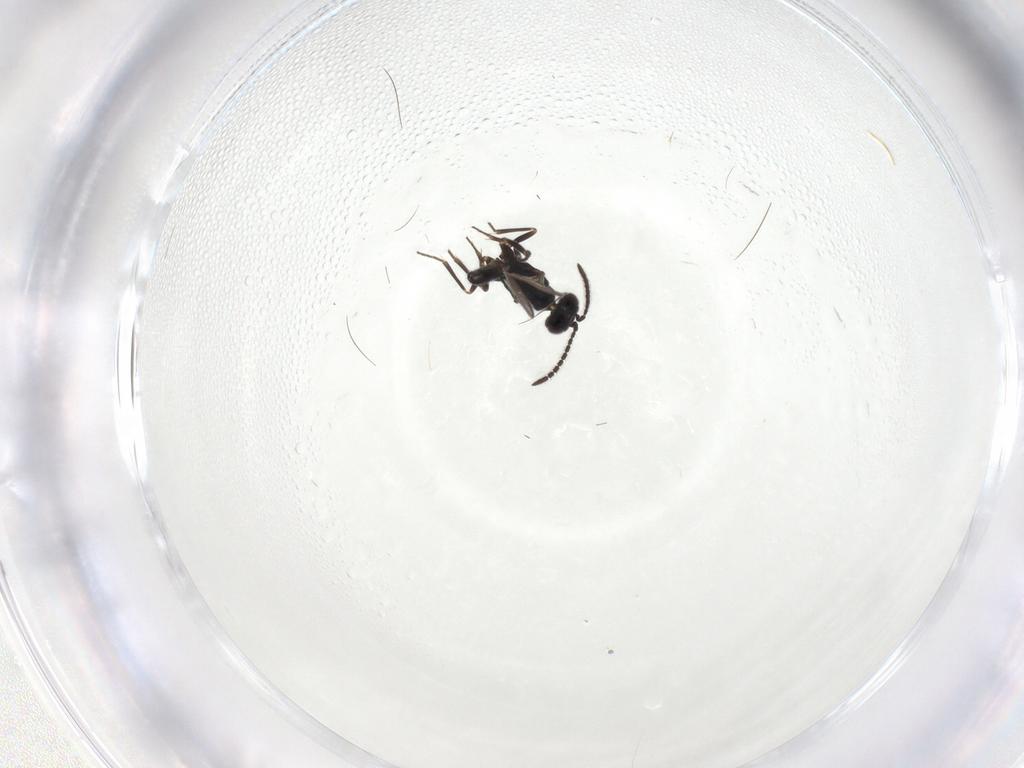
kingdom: Animalia
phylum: Arthropoda
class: Insecta
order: Hymenoptera
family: Eupelmidae
